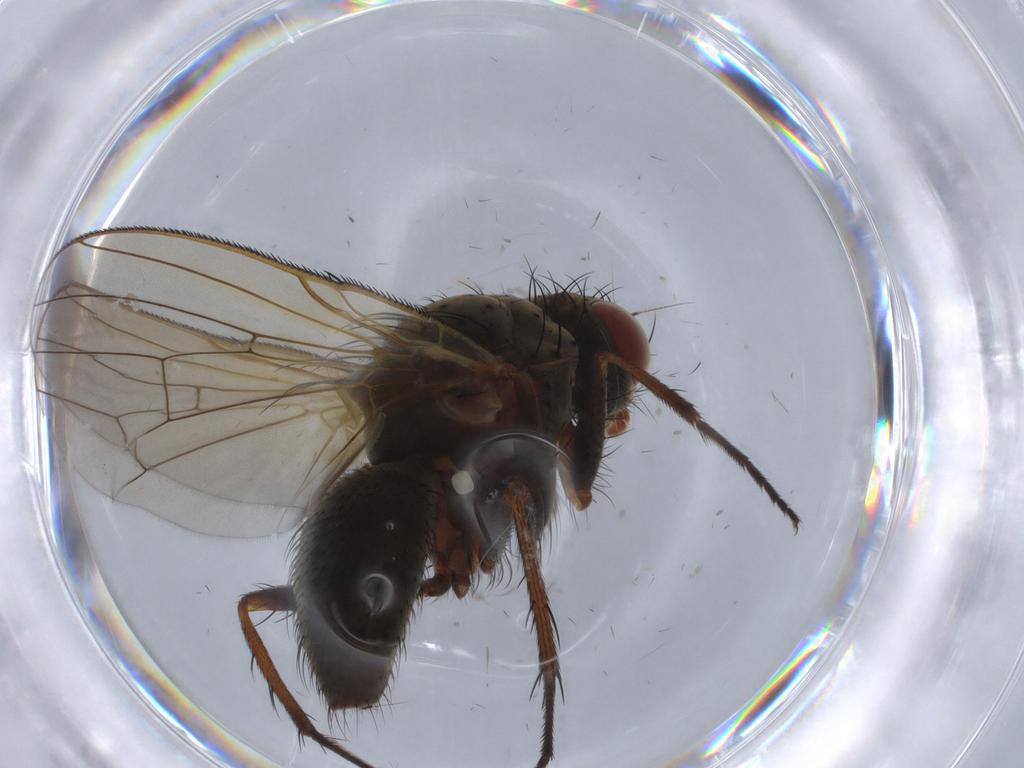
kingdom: Animalia
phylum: Arthropoda
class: Insecta
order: Diptera
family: Anthomyiidae
